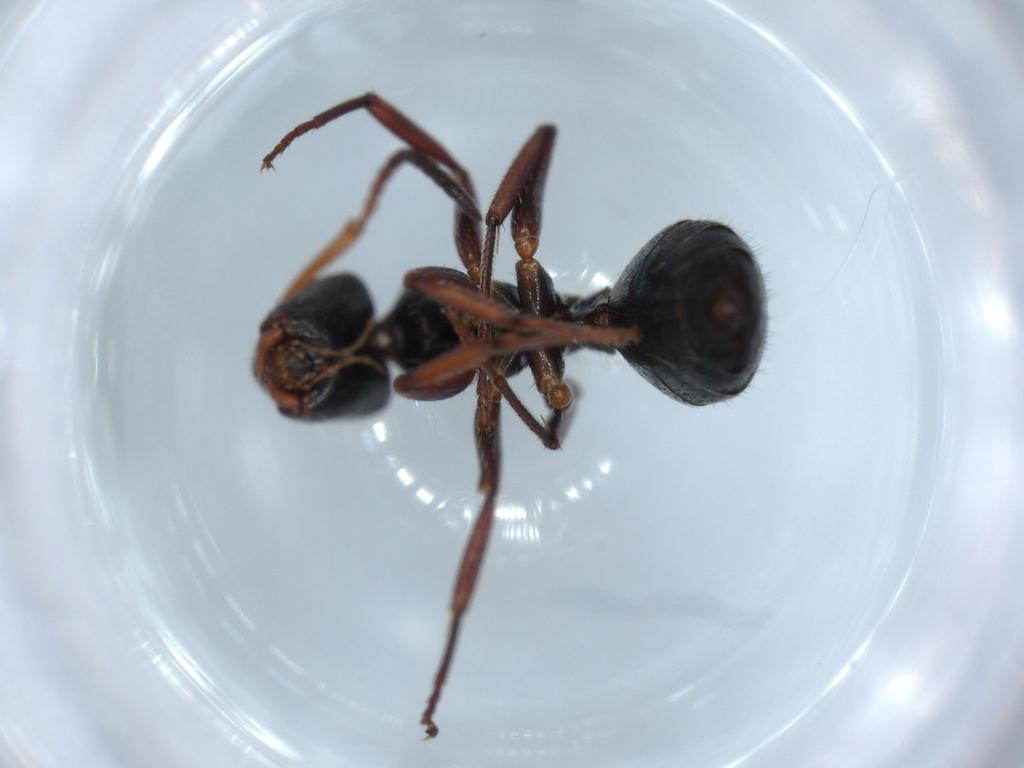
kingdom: Animalia
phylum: Arthropoda
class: Insecta
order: Hymenoptera
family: Formicidae
